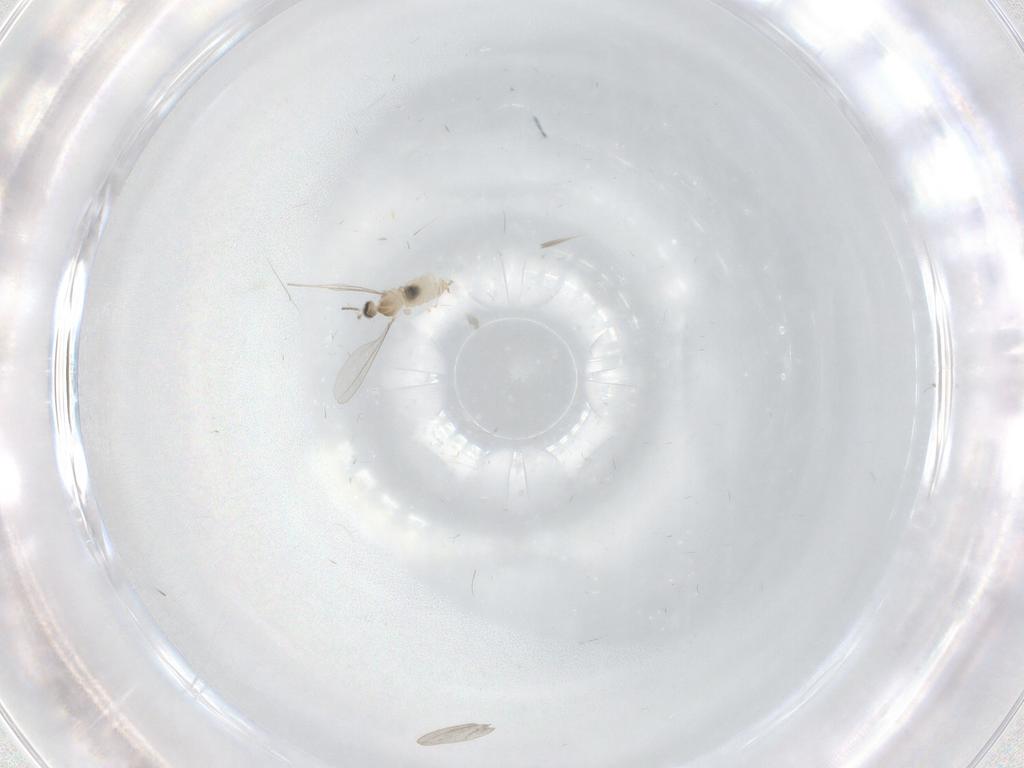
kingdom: Animalia
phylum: Arthropoda
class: Insecta
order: Diptera
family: Cecidomyiidae
